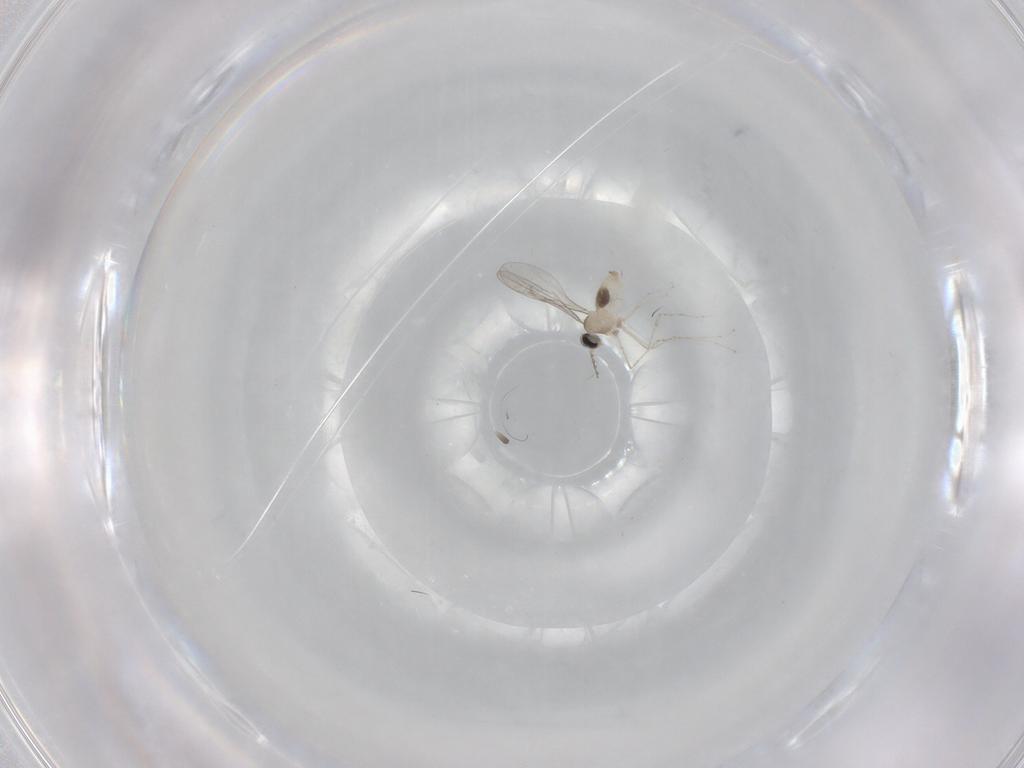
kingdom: Animalia
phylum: Arthropoda
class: Insecta
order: Diptera
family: Cecidomyiidae
